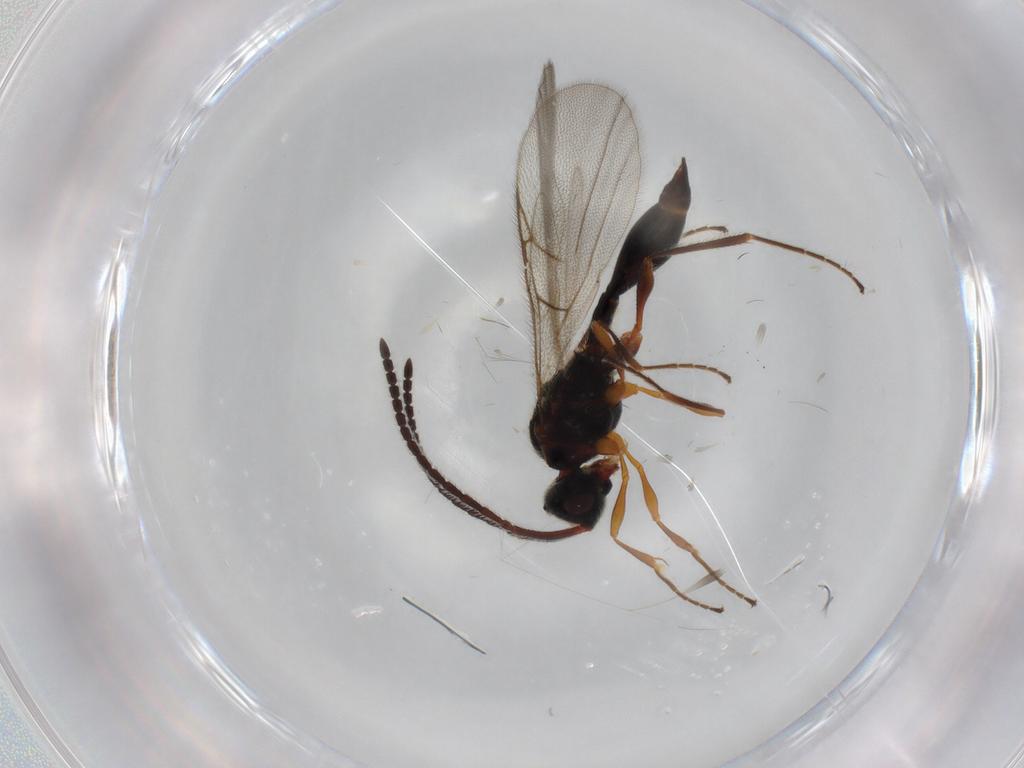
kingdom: Animalia
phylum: Arthropoda
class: Insecta
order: Hymenoptera
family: Diapriidae
